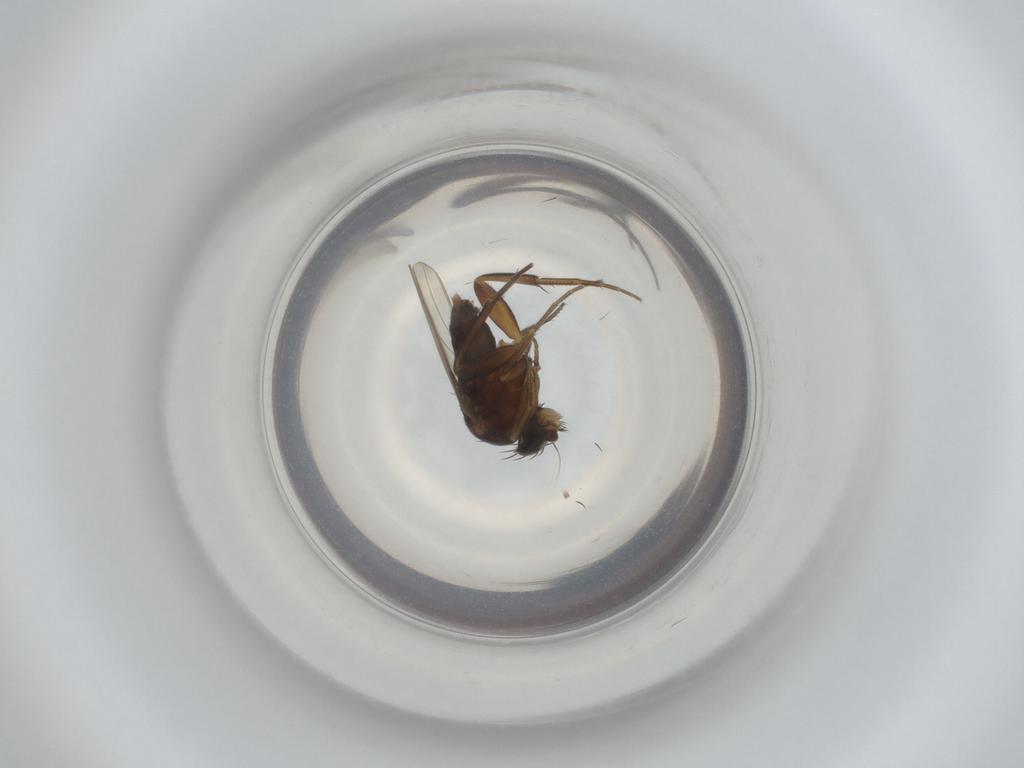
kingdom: Animalia
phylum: Arthropoda
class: Insecta
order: Diptera
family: Phoridae
